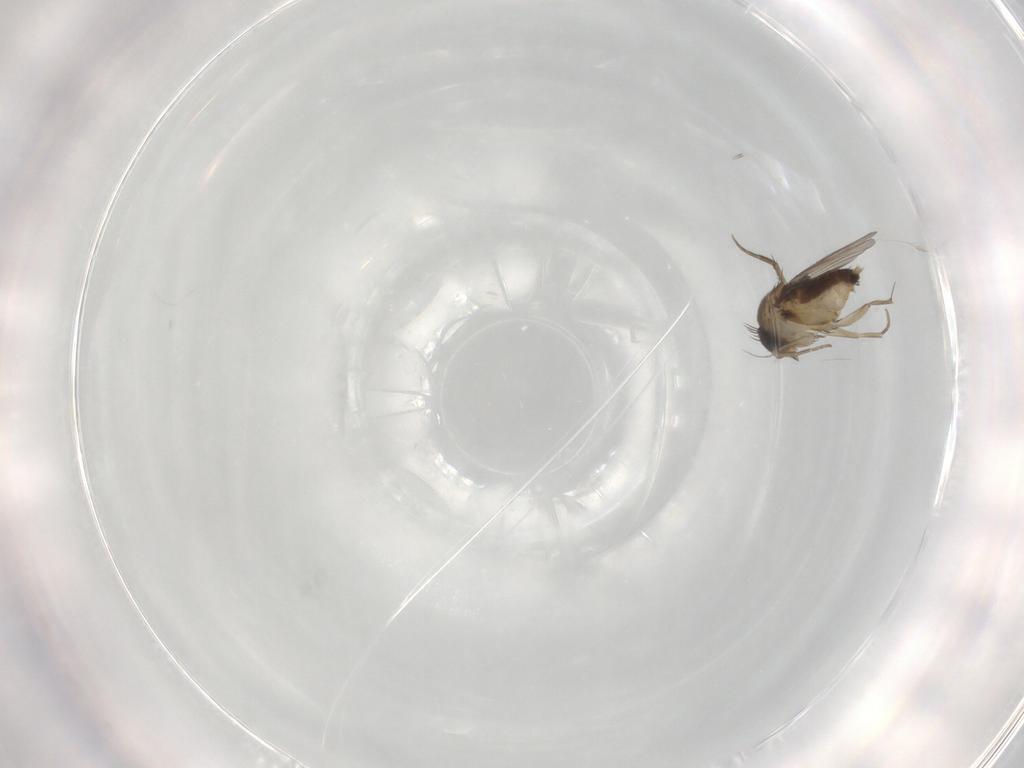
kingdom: Animalia
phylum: Arthropoda
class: Insecta
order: Diptera
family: Phoridae
